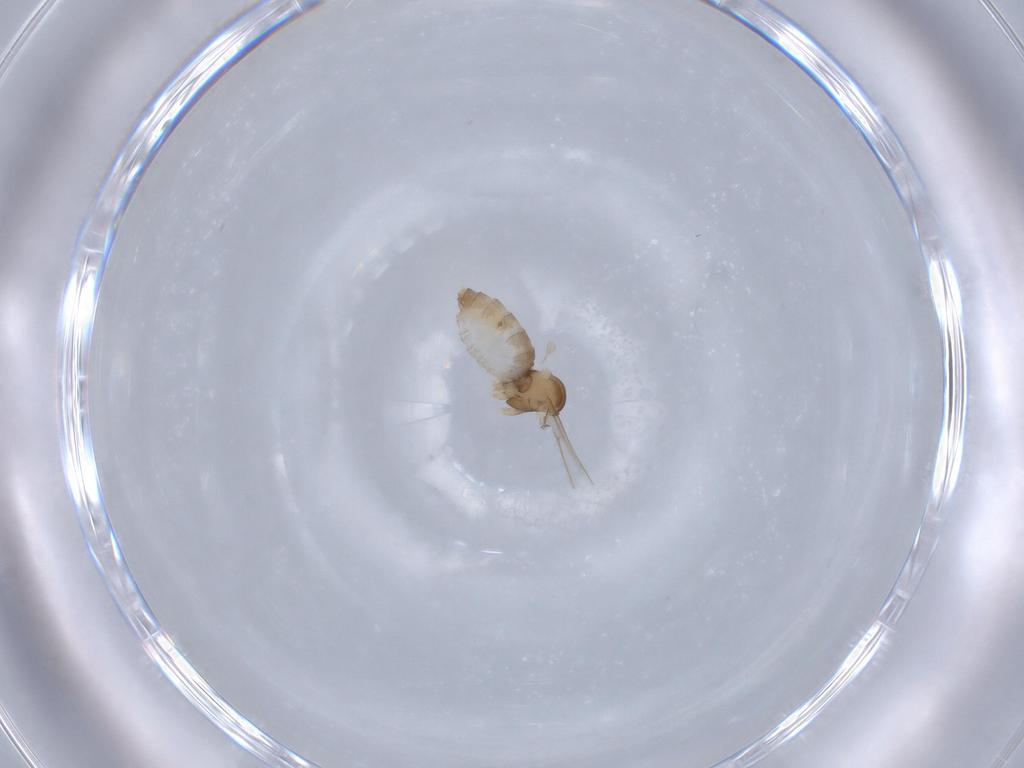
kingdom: Animalia
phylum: Arthropoda
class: Insecta
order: Diptera
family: Cecidomyiidae
